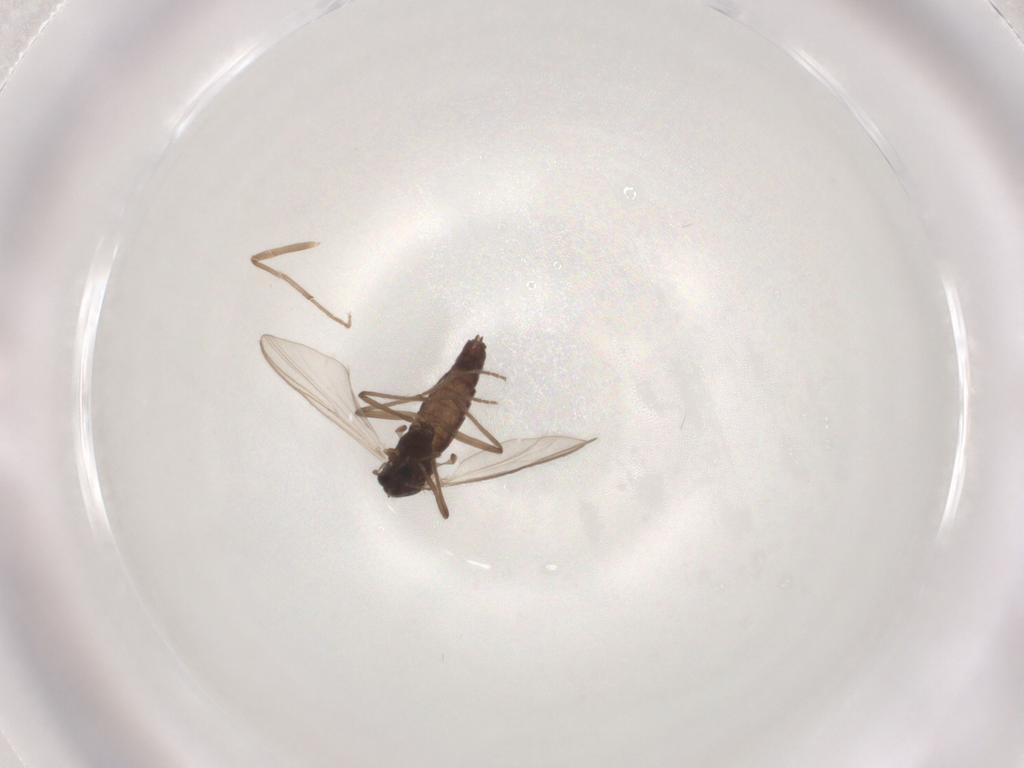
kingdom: Animalia
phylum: Arthropoda
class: Insecta
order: Diptera
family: Chironomidae
